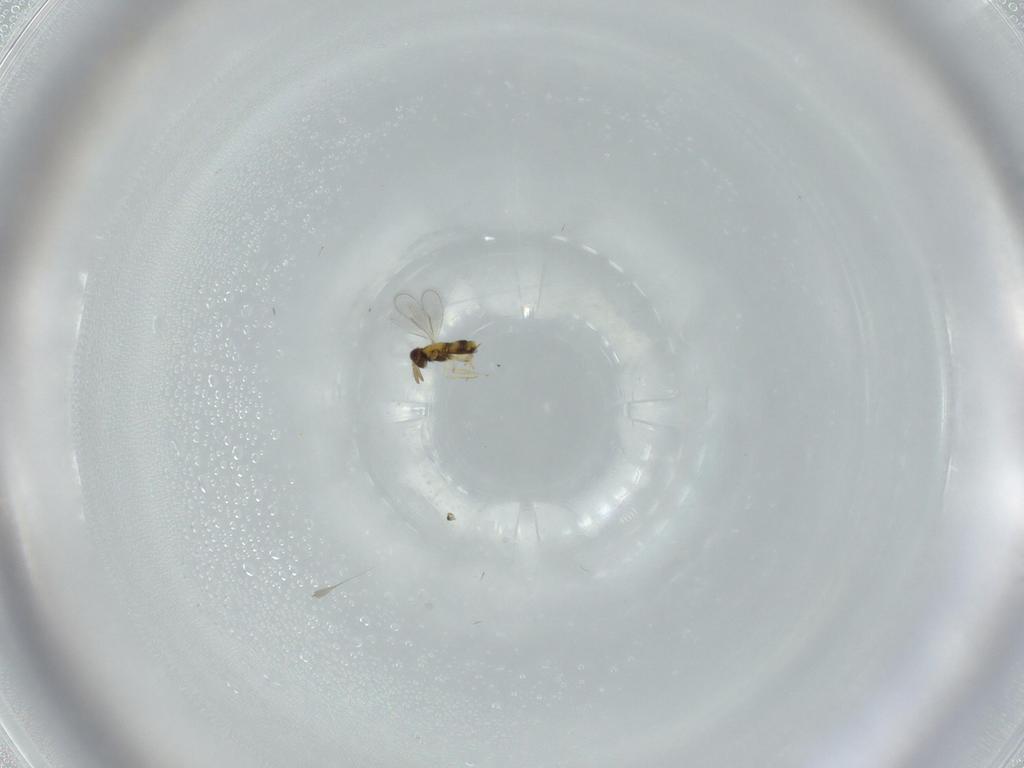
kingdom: Animalia
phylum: Arthropoda
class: Insecta
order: Hymenoptera
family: Aphelinidae
